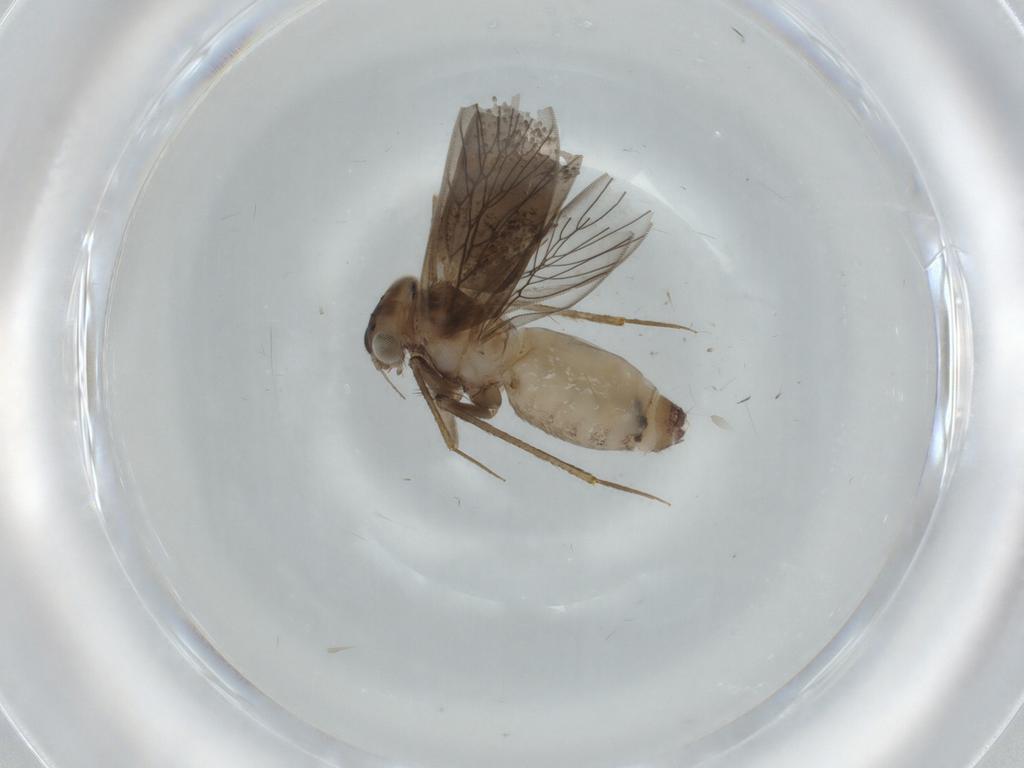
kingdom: Animalia
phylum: Arthropoda
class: Insecta
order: Psocodea
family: Lepidopsocidae
